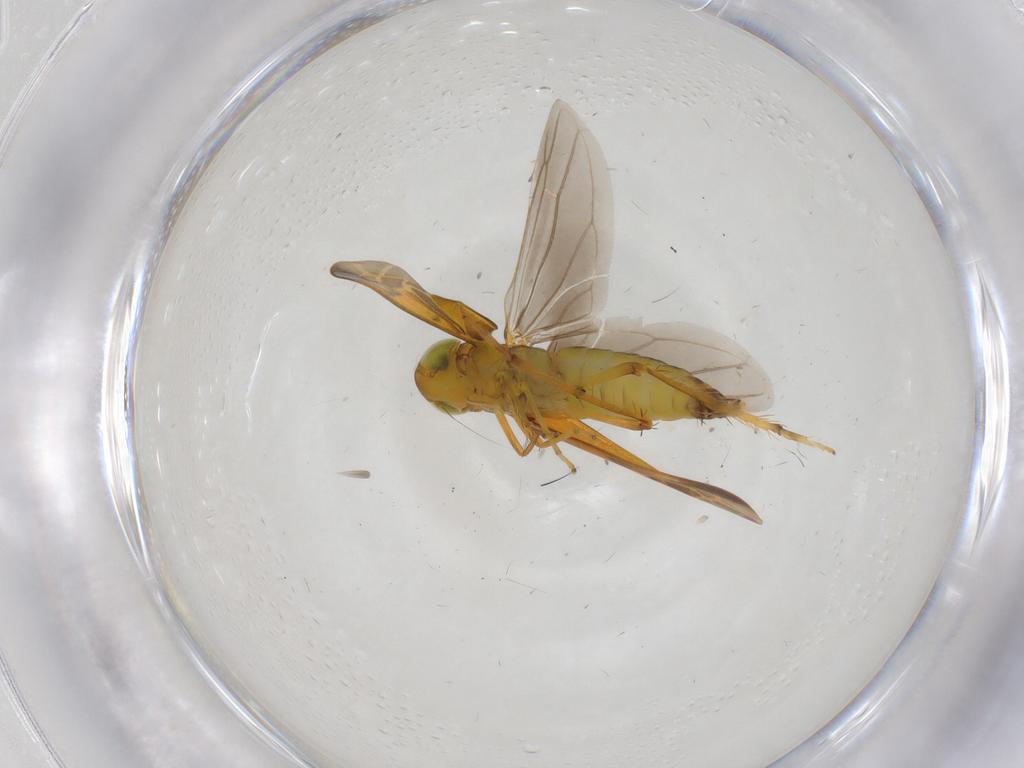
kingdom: Animalia
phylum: Arthropoda
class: Insecta
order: Hemiptera
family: Cicadellidae
